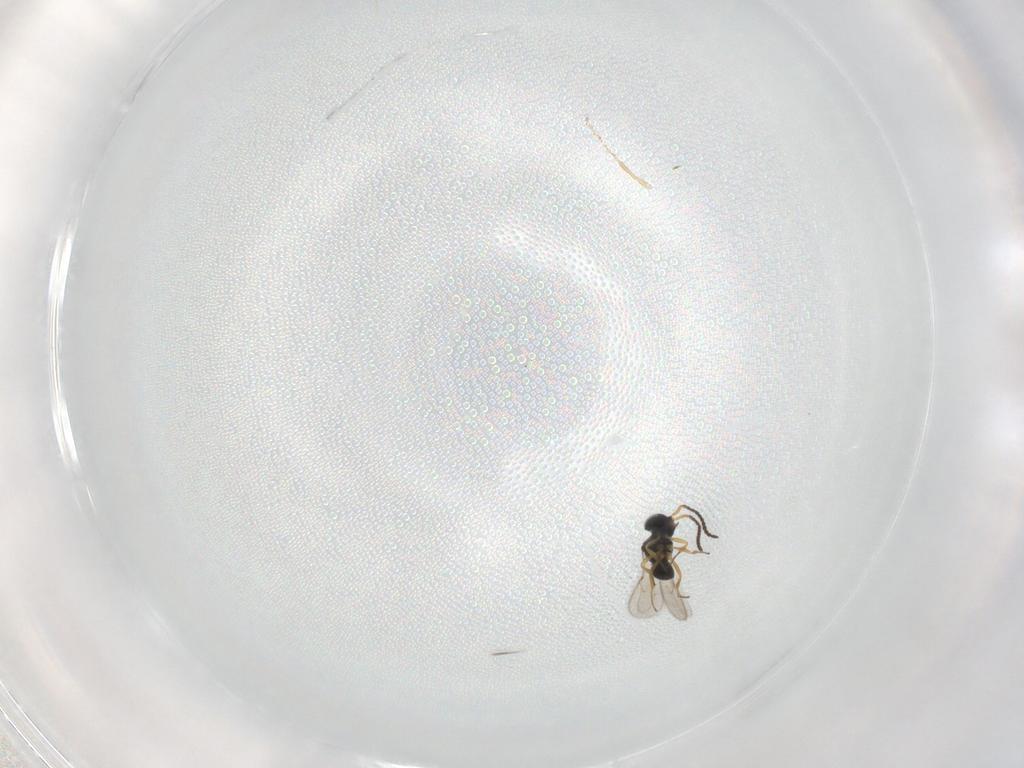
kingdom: Animalia
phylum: Arthropoda
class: Insecta
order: Hymenoptera
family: Scelionidae
